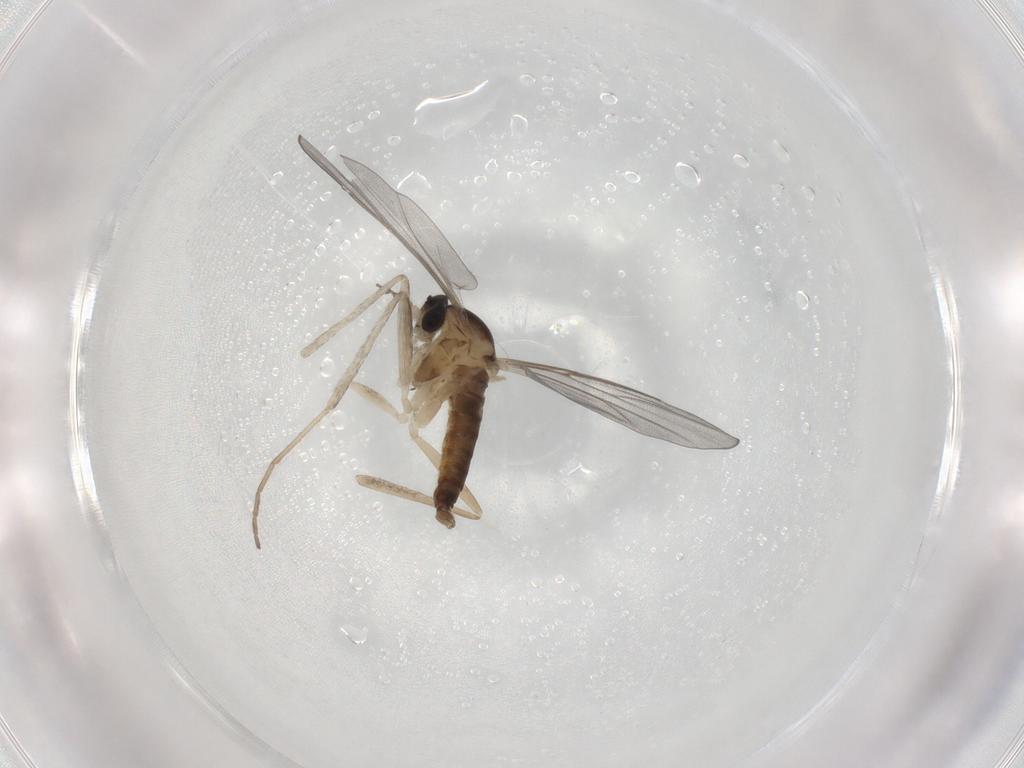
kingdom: Animalia
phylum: Arthropoda
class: Insecta
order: Diptera
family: Cecidomyiidae
